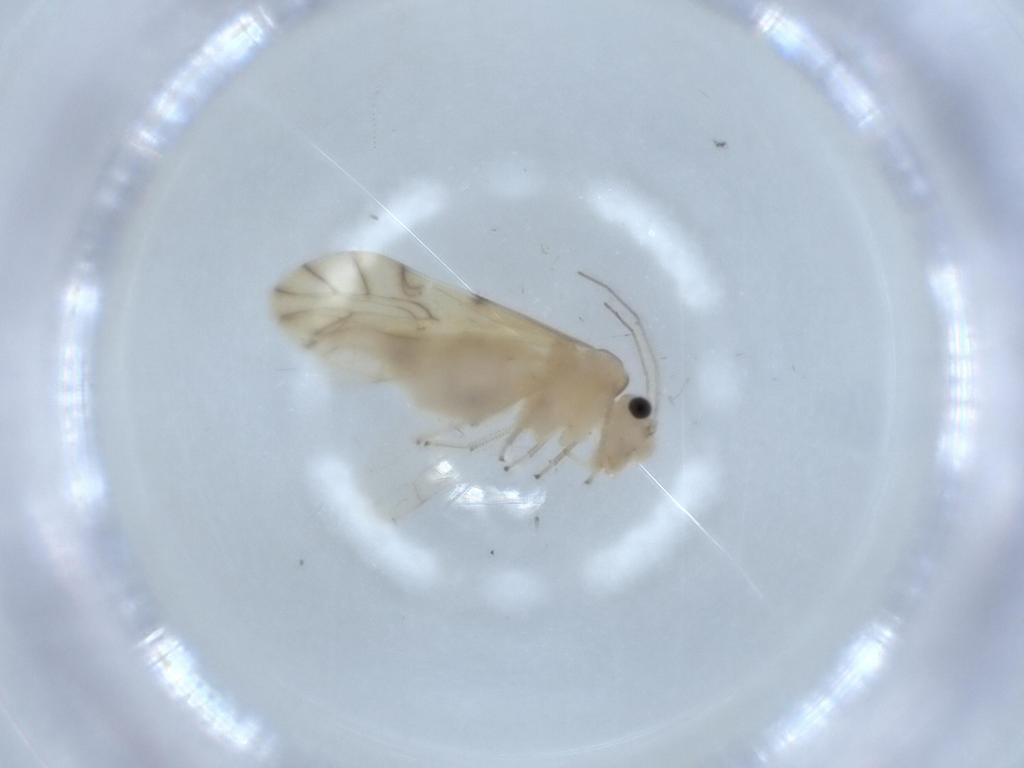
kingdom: Animalia
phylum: Arthropoda
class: Insecta
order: Psocodea
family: Caeciliusidae
